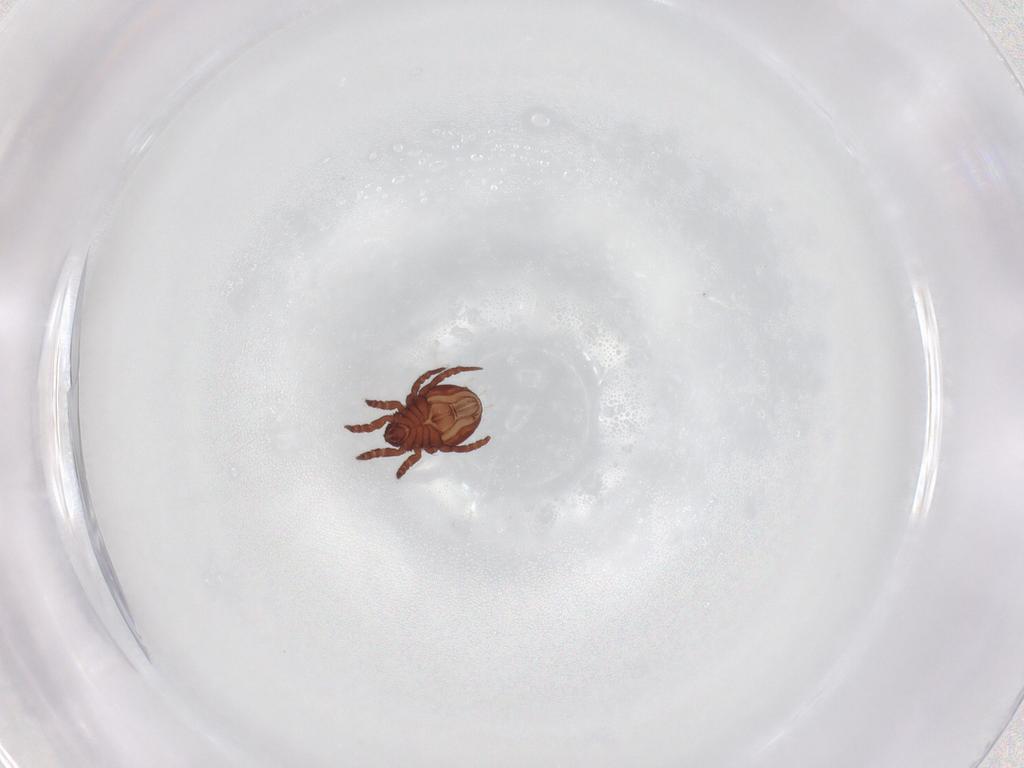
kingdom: Animalia
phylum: Arthropoda
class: Arachnida
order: Sarcoptiformes
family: Nothridae
